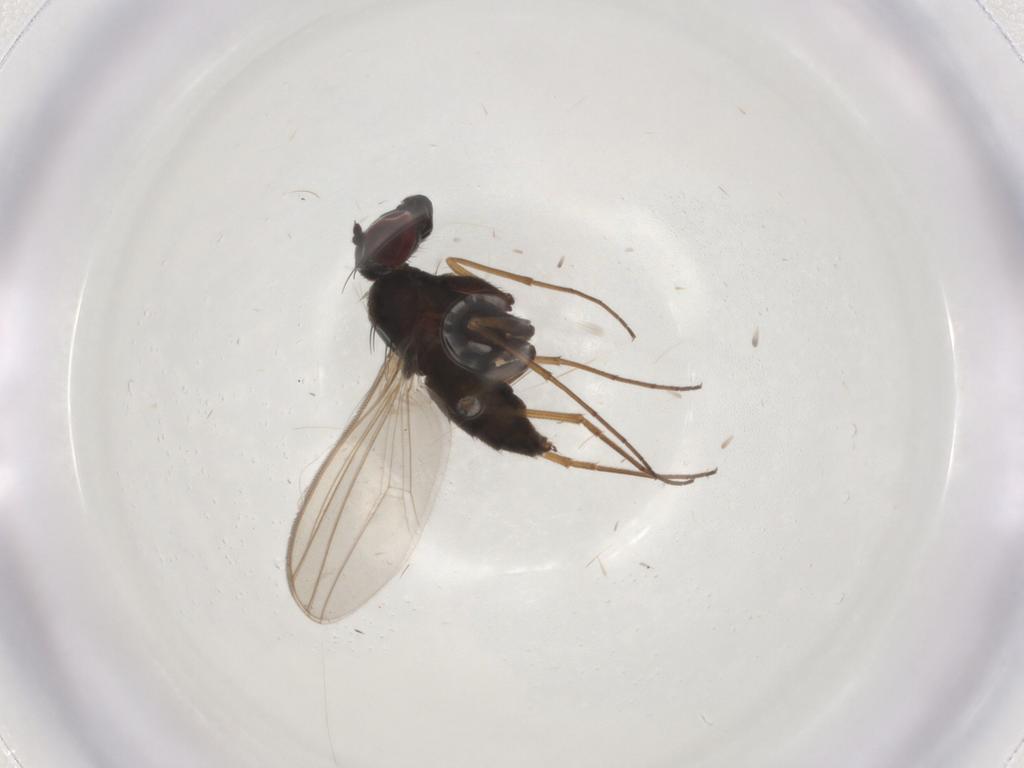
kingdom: Animalia
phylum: Arthropoda
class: Insecta
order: Diptera
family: Dolichopodidae
